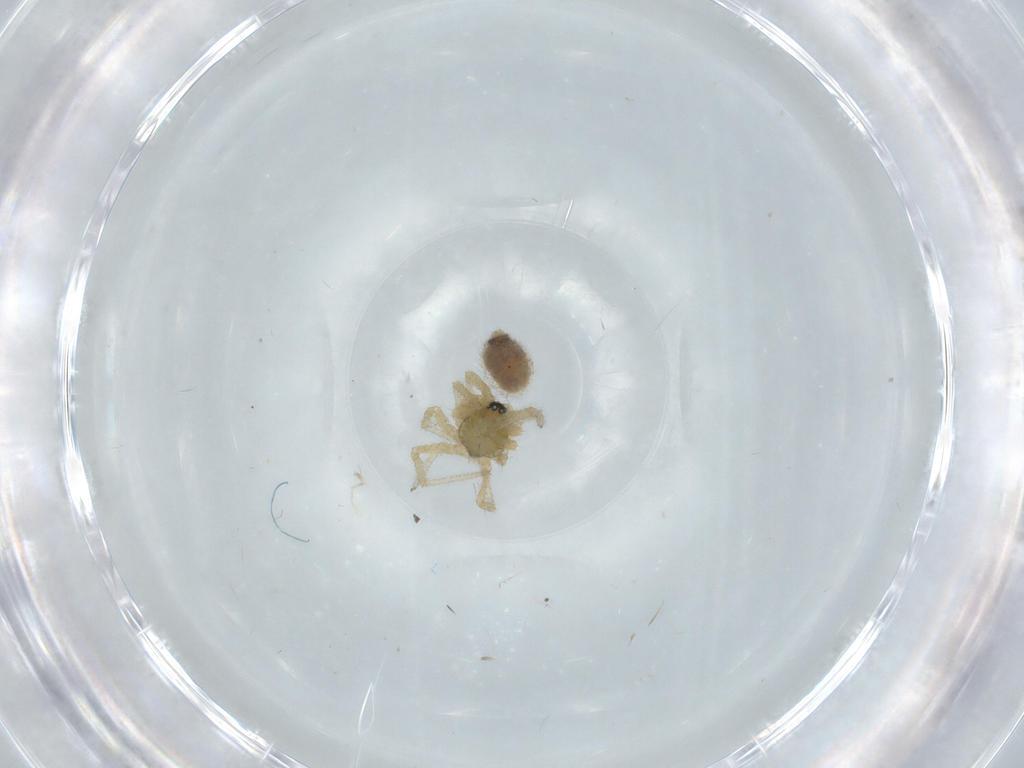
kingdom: Animalia
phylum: Arthropoda
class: Arachnida
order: Araneae
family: Linyphiidae
